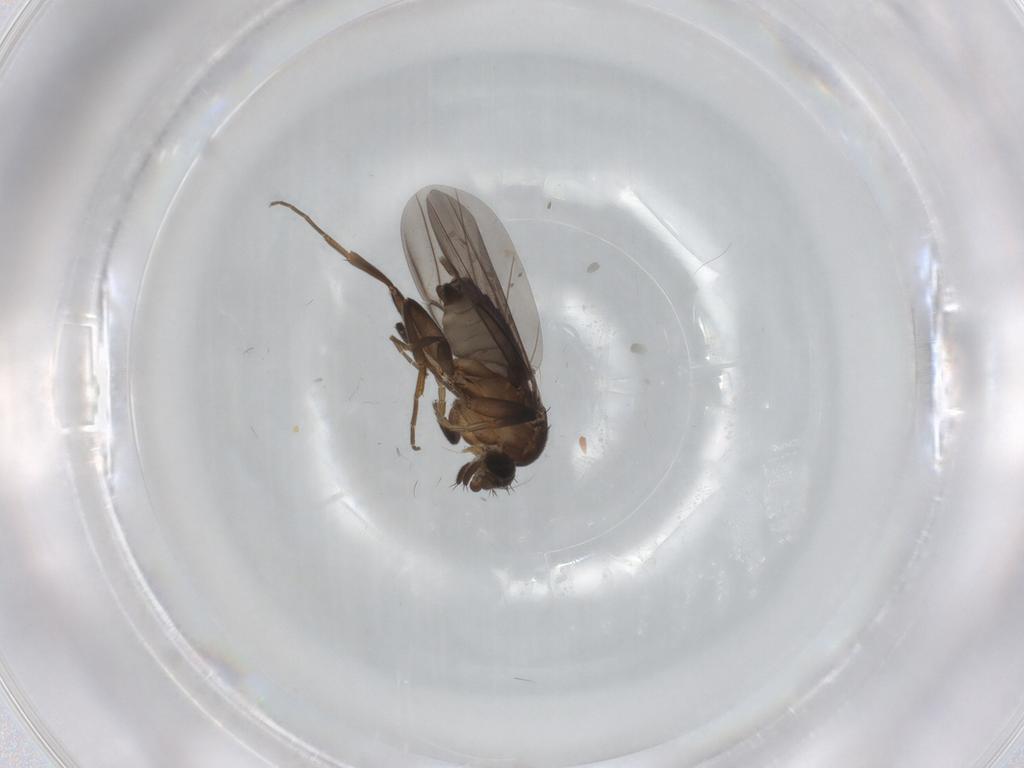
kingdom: Animalia
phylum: Arthropoda
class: Insecta
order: Diptera
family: Phoridae
